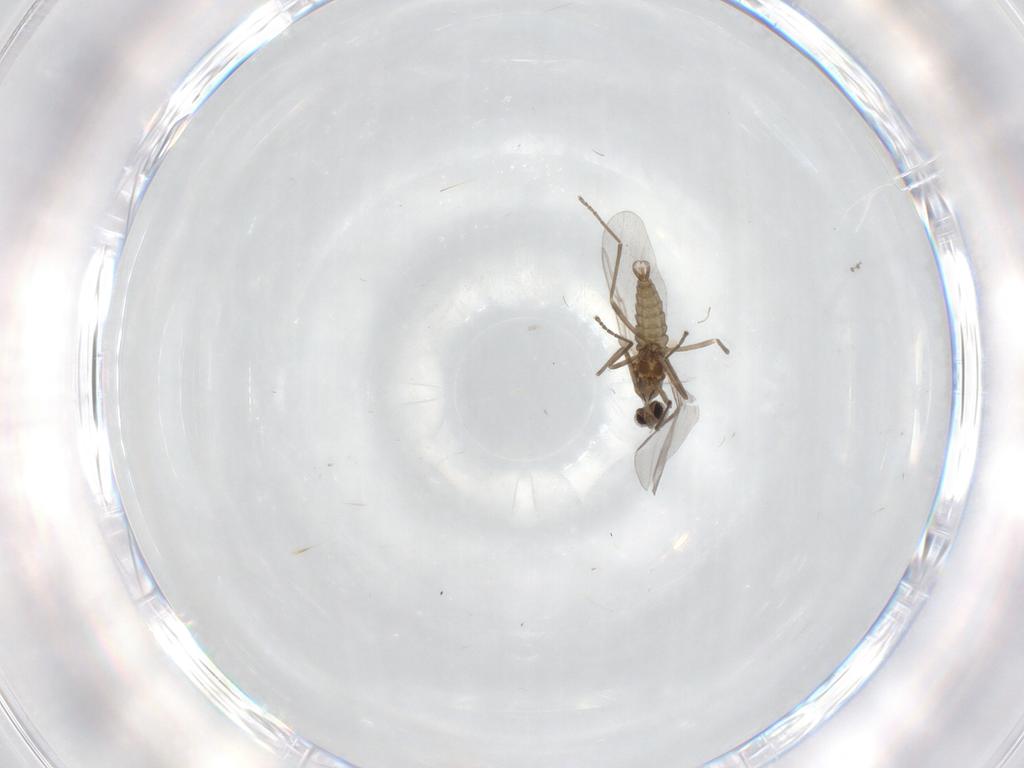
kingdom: Animalia
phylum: Arthropoda
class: Insecta
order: Diptera
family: Cecidomyiidae
